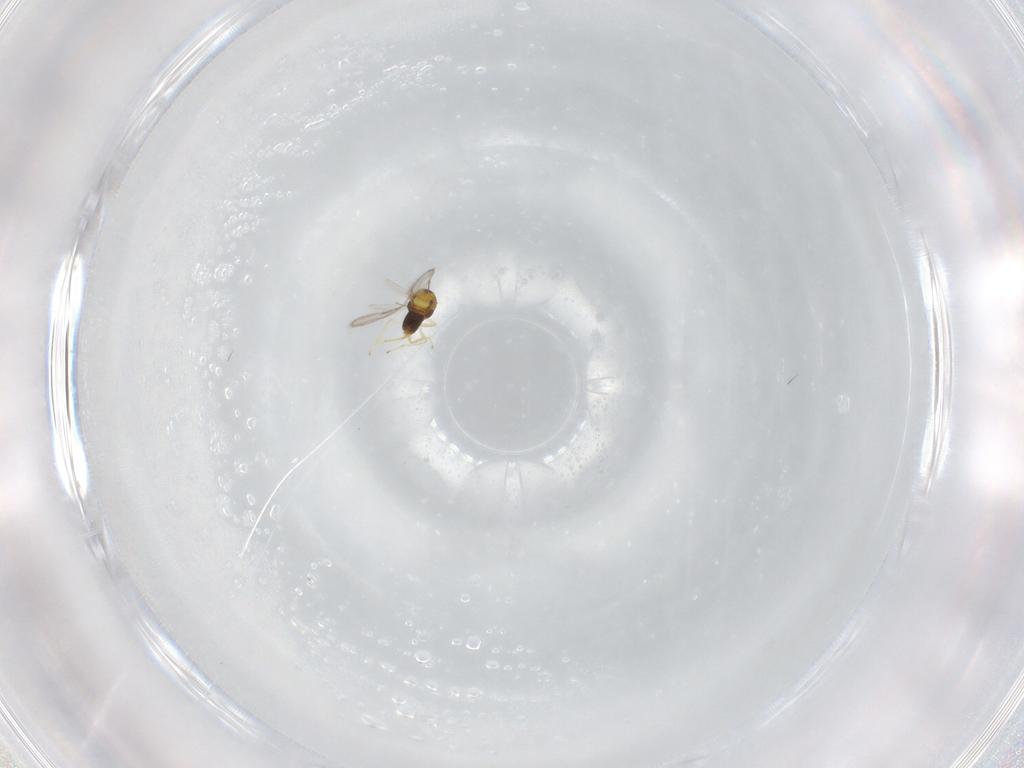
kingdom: Animalia
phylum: Arthropoda
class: Insecta
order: Hymenoptera
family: Aphelinidae
